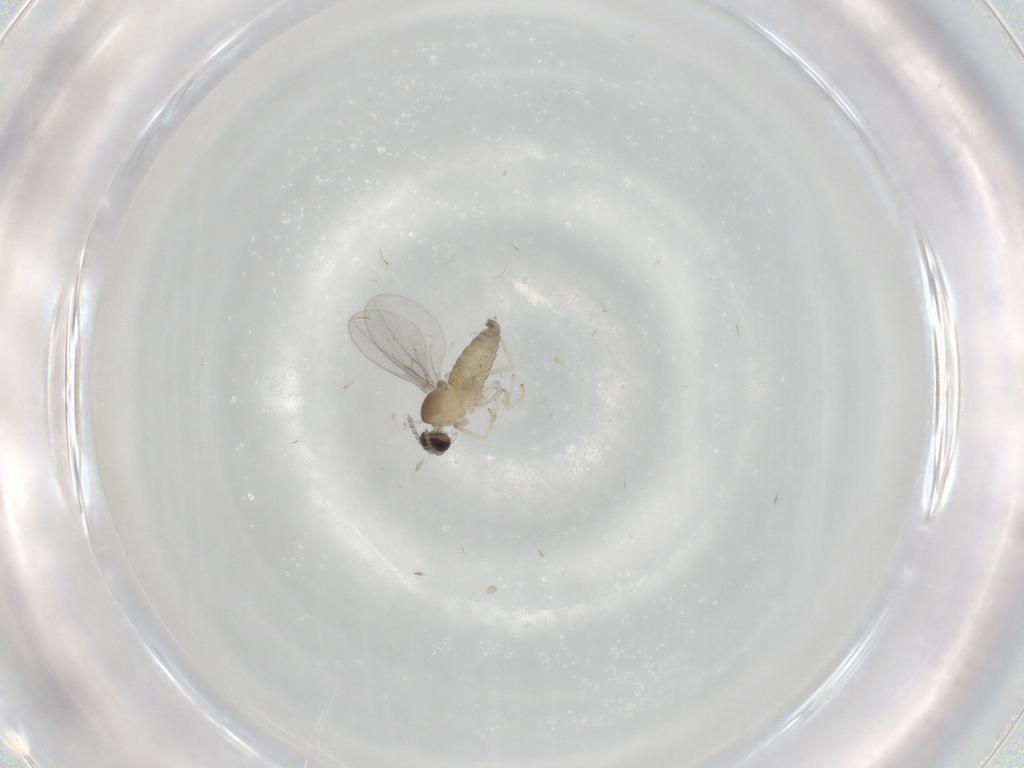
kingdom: Animalia
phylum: Arthropoda
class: Insecta
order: Diptera
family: Cecidomyiidae
